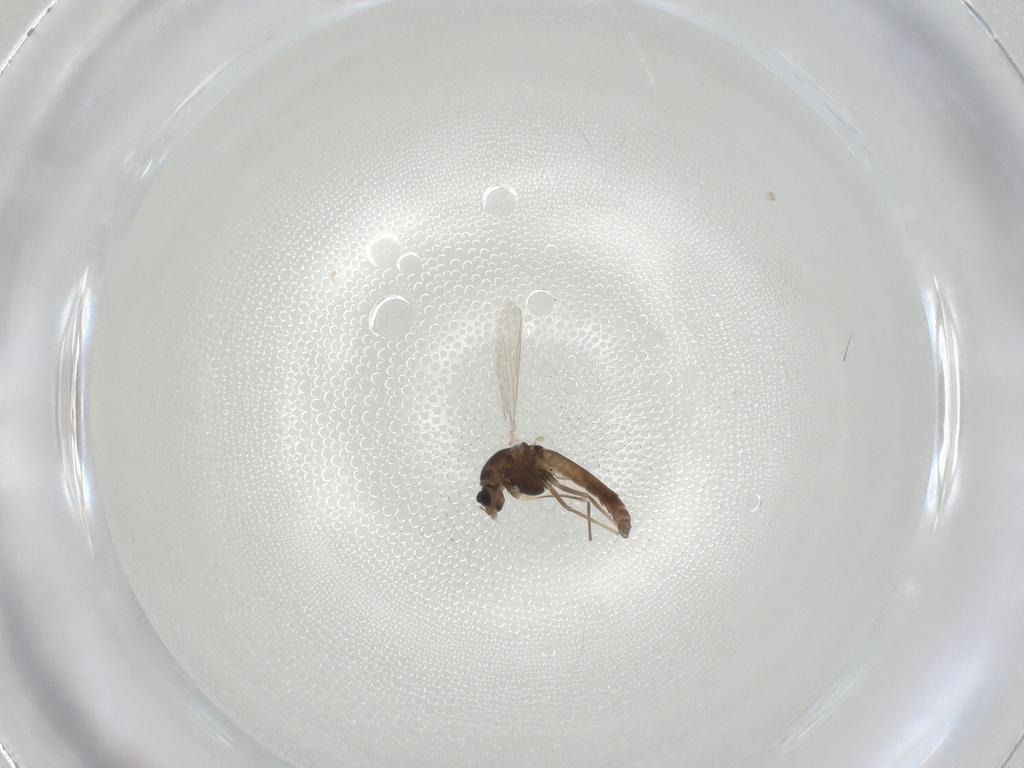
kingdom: Animalia
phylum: Arthropoda
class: Insecta
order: Diptera
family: Chironomidae
